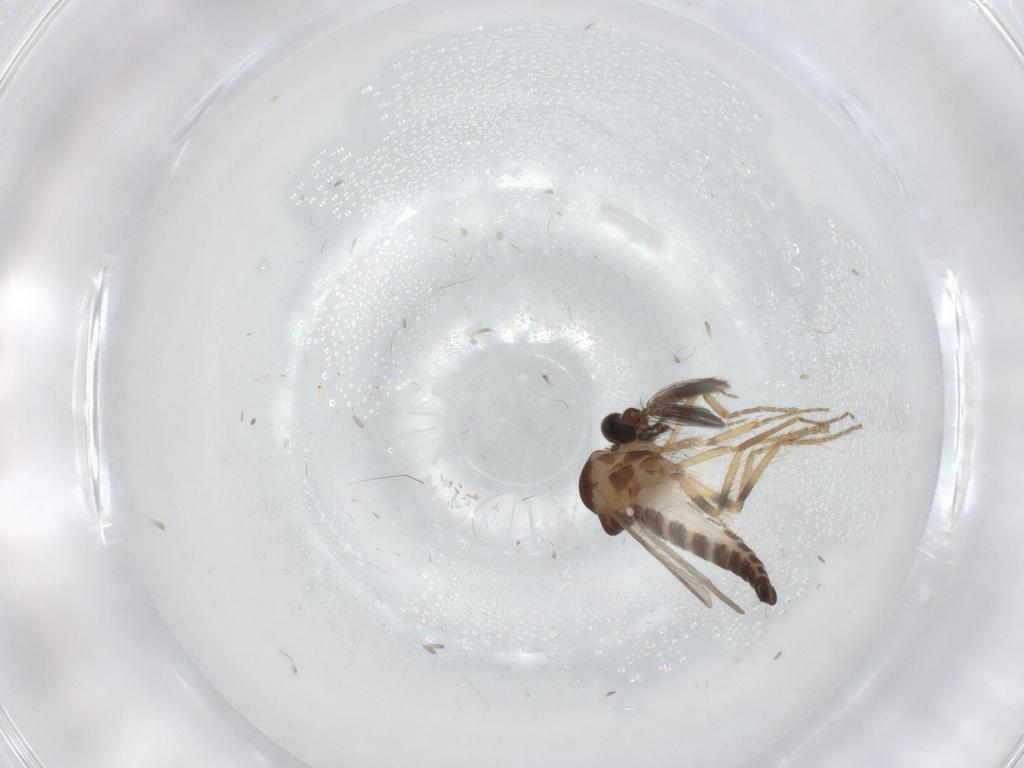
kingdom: Animalia
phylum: Arthropoda
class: Insecta
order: Diptera
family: Ceratopogonidae
